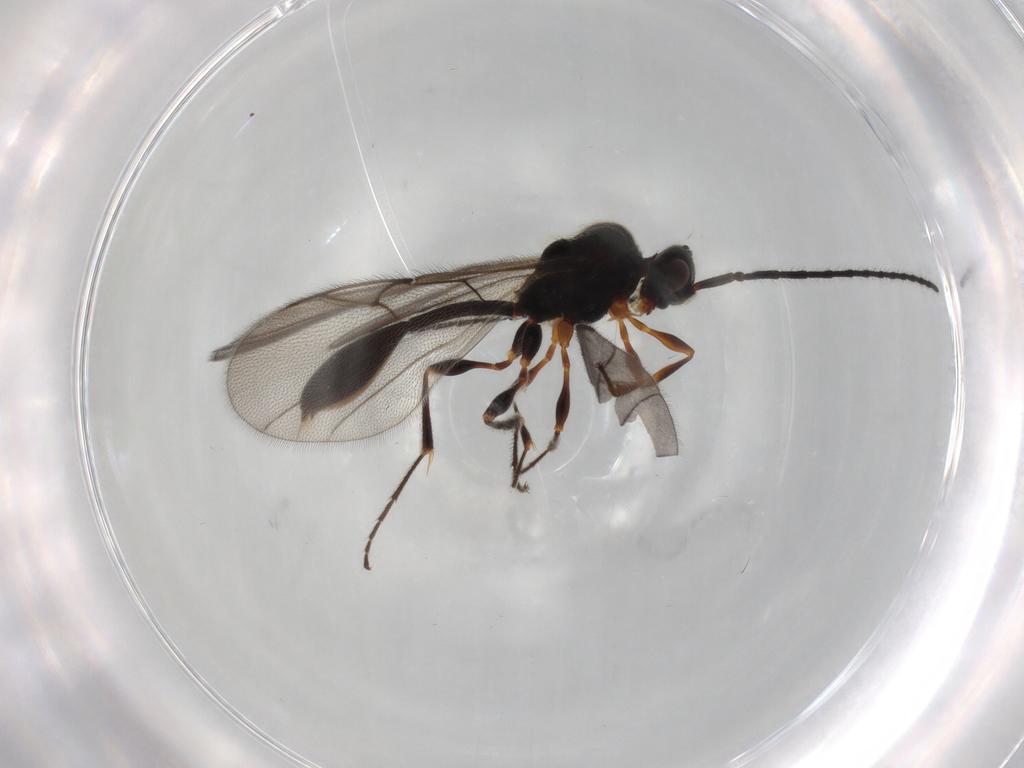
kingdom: Animalia
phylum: Arthropoda
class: Insecta
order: Hymenoptera
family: Diapriidae
